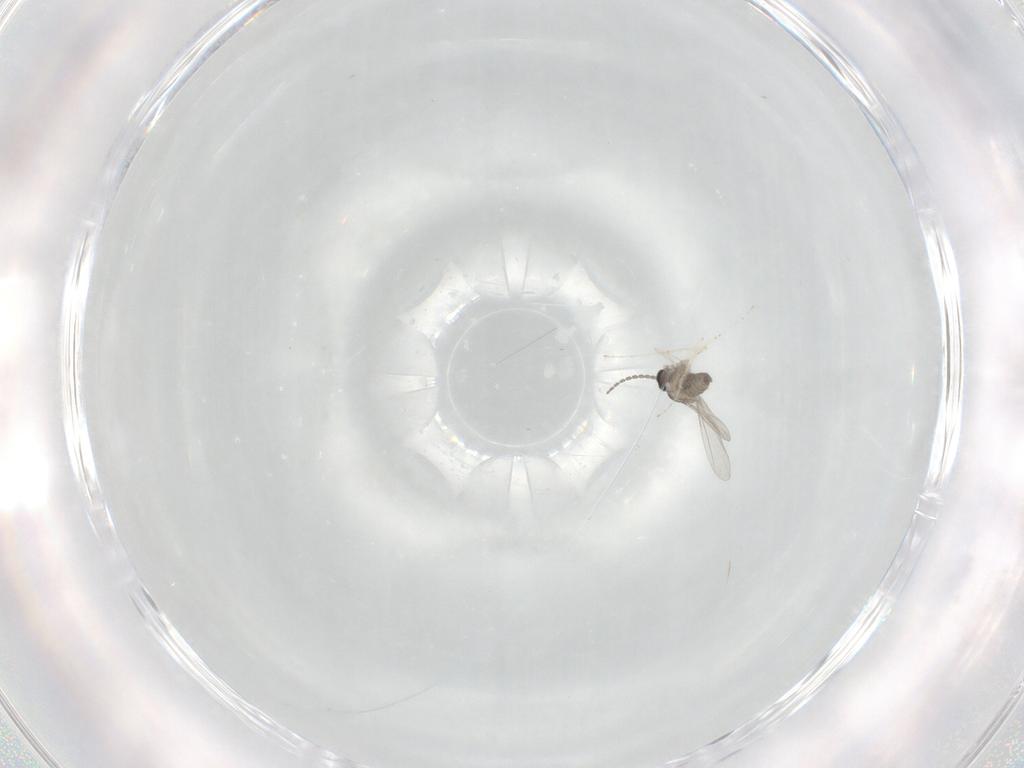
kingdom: Animalia
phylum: Arthropoda
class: Insecta
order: Diptera
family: Cecidomyiidae
